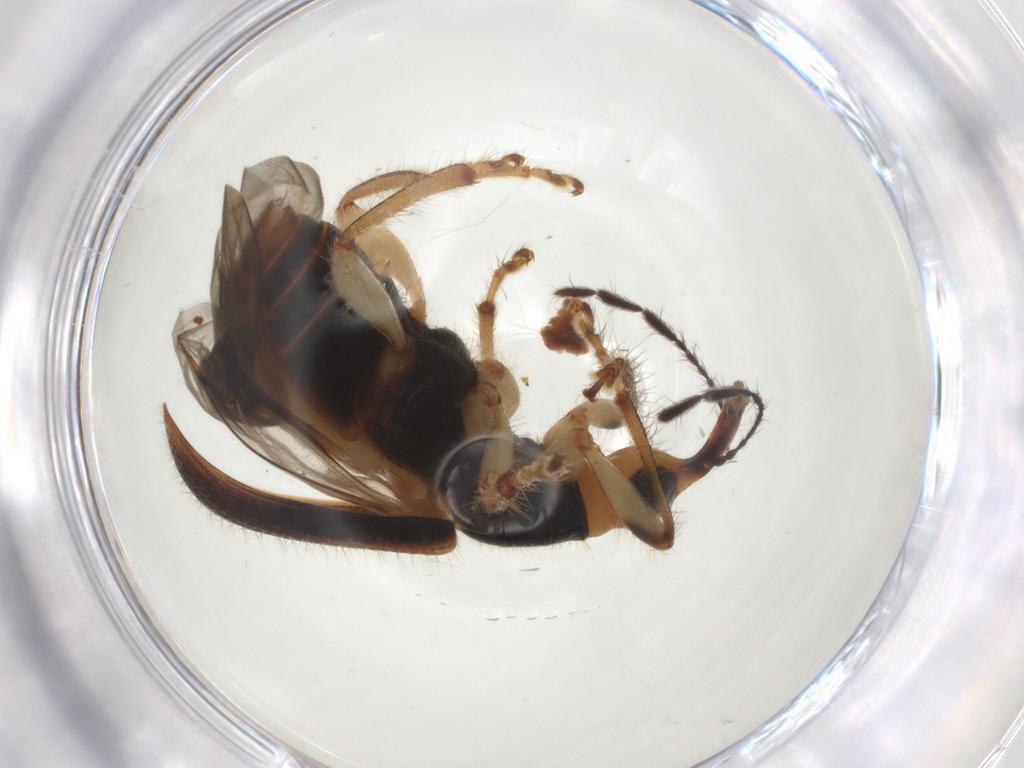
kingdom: Animalia
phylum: Arthropoda
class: Insecta
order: Coleoptera
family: Attelabidae
